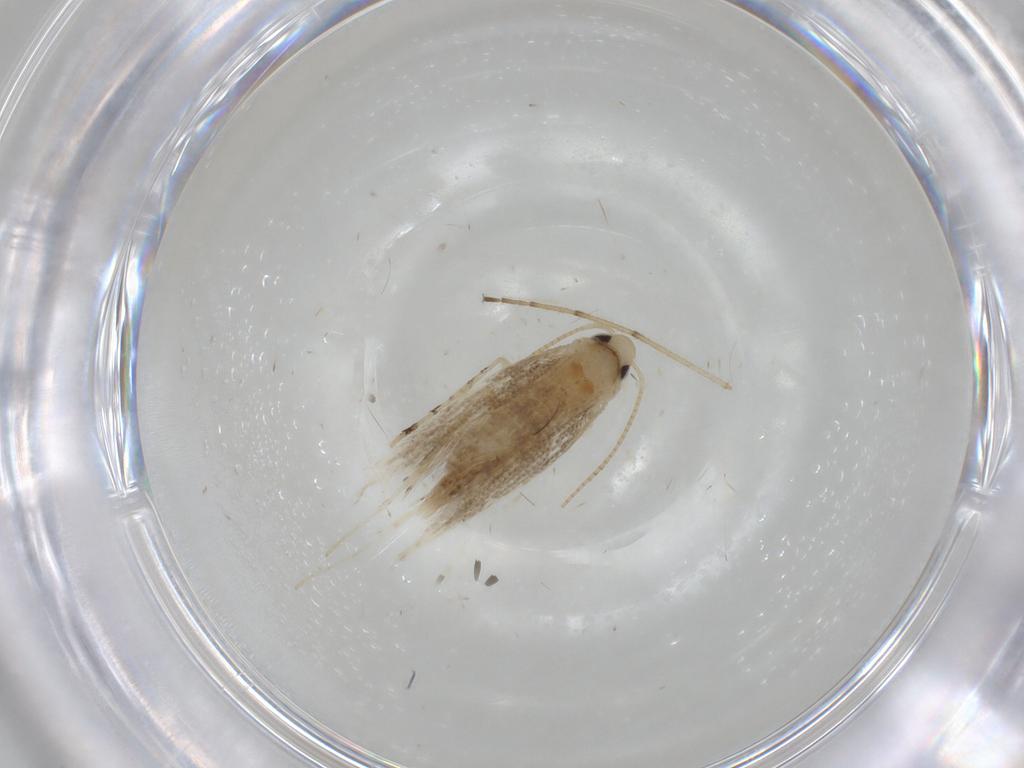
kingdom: Animalia
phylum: Arthropoda
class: Insecta
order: Lepidoptera
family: Gracillariidae
